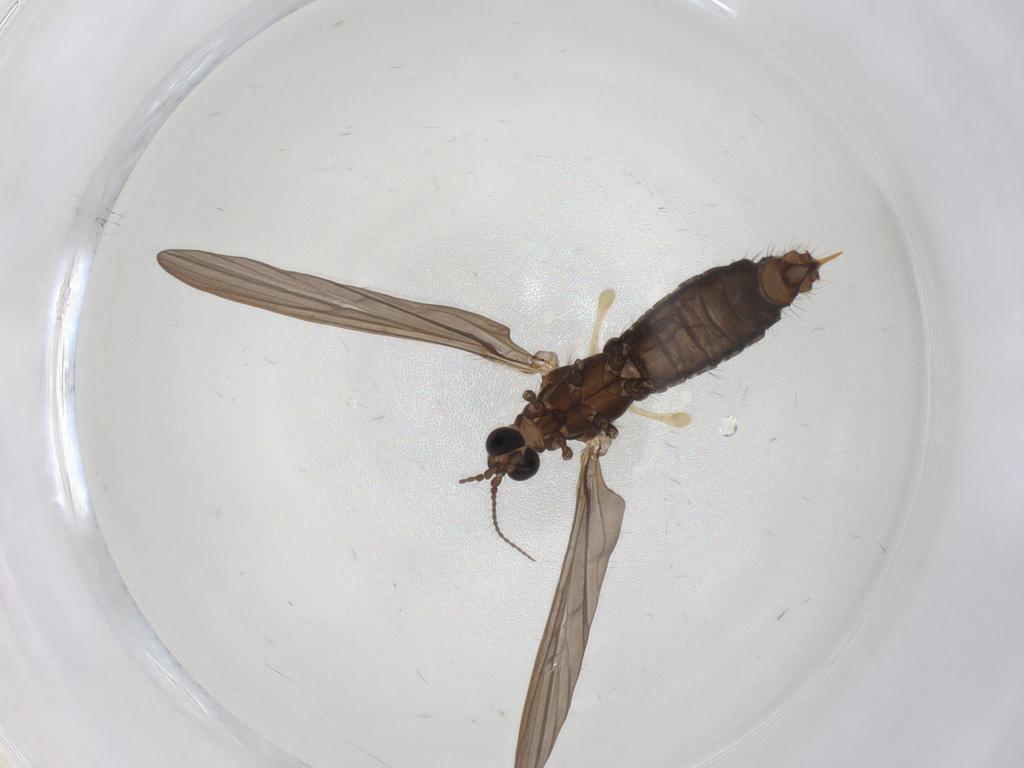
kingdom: Animalia
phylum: Arthropoda
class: Insecta
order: Diptera
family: Limoniidae
